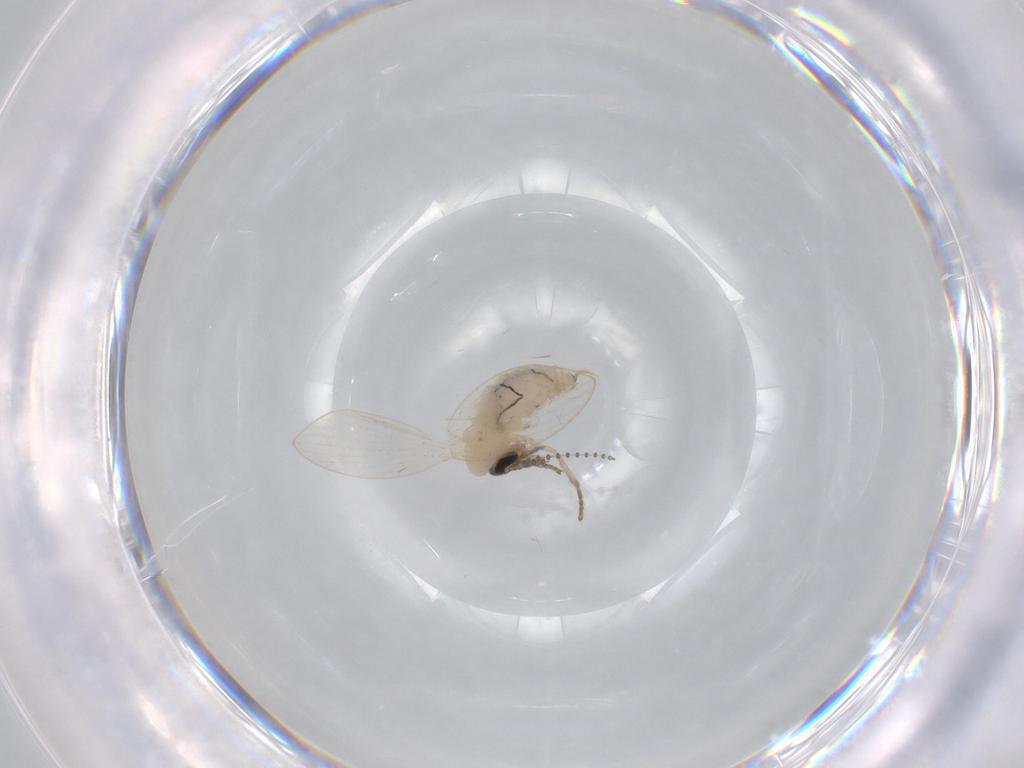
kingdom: Animalia
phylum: Arthropoda
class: Insecta
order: Diptera
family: Psychodidae
